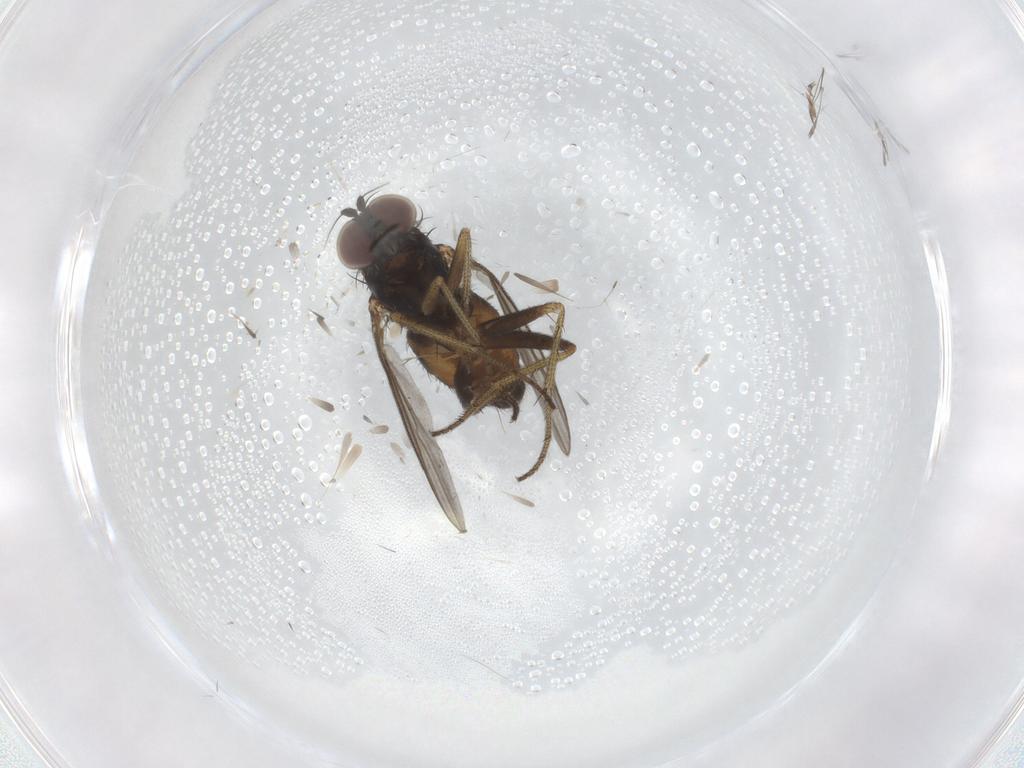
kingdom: Animalia
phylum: Arthropoda
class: Insecta
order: Diptera
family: Dolichopodidae
